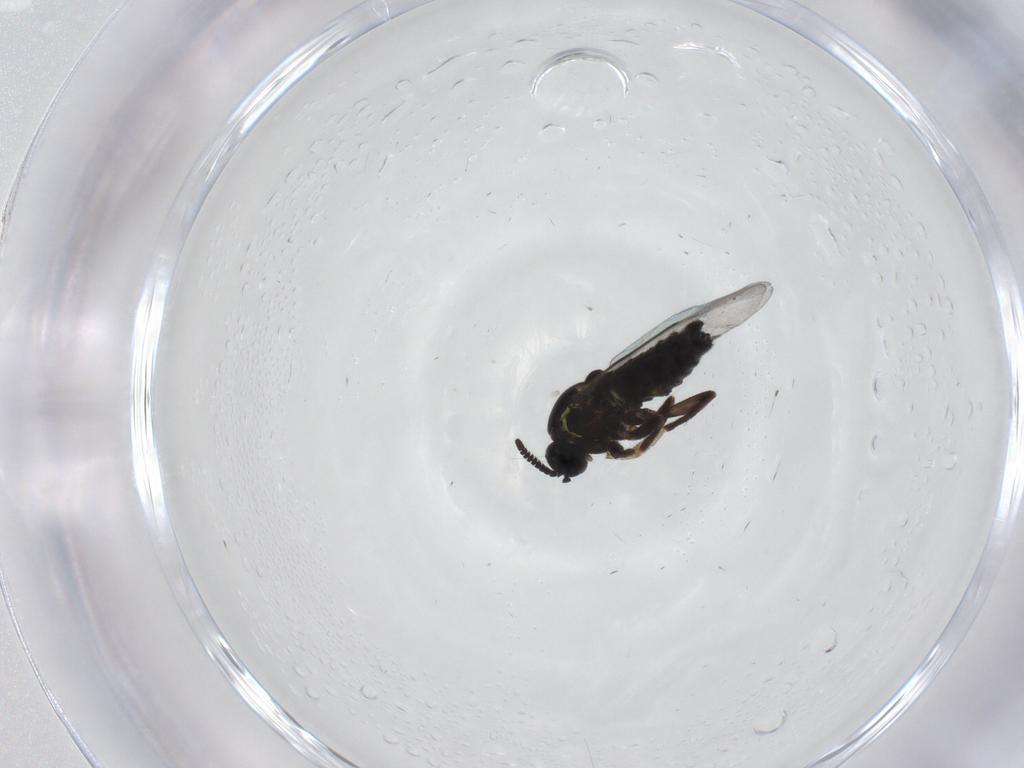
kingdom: Animalia
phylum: Arthropoda
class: Insecta
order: Diptera
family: Scatopsidae
